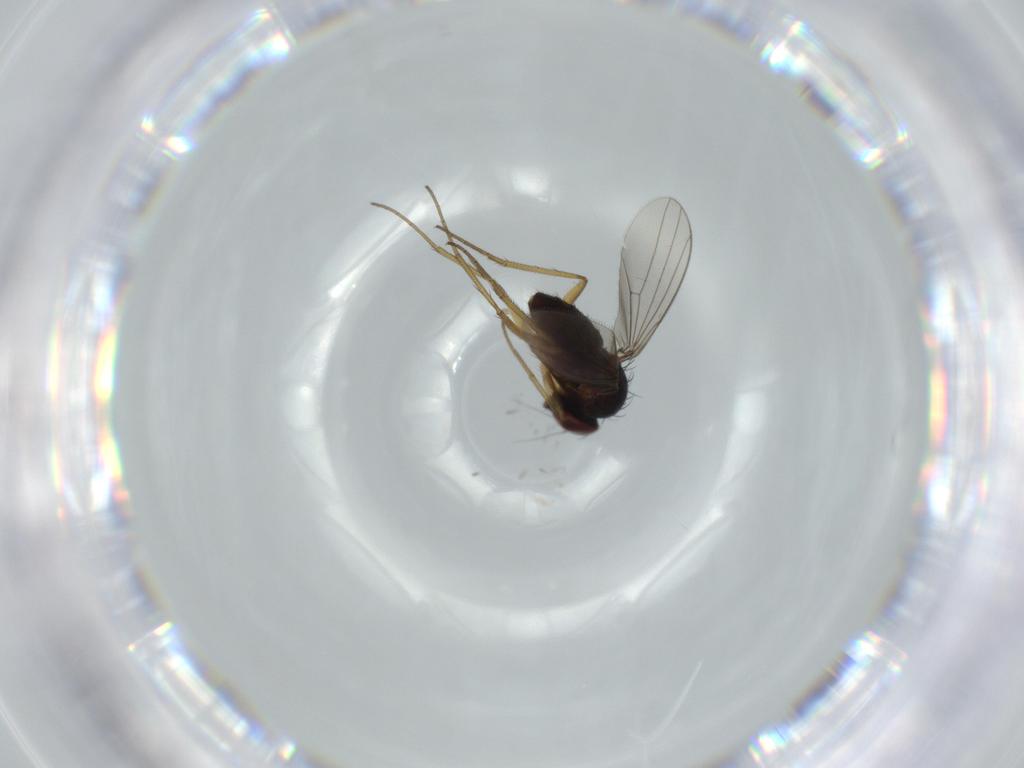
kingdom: Animalia
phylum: Arthropoda
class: Insecta
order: Diptera
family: Dolichopodidae
